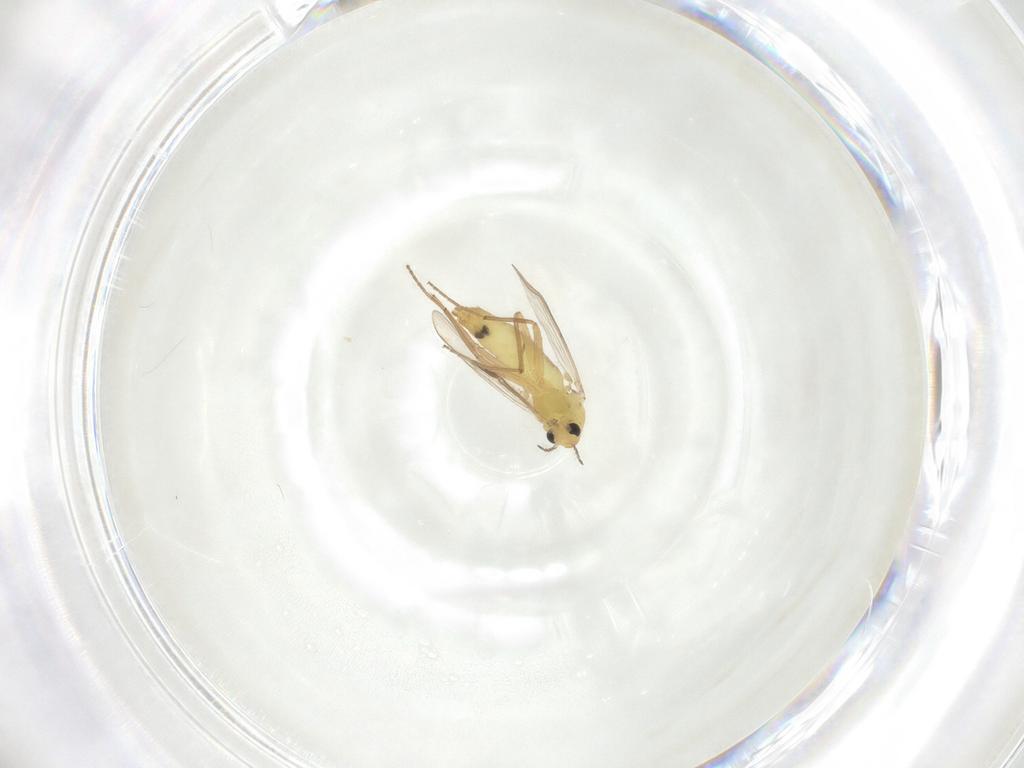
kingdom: Animalia
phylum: Arthropoda
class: Insecta
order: Diptera
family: Chironomidae
